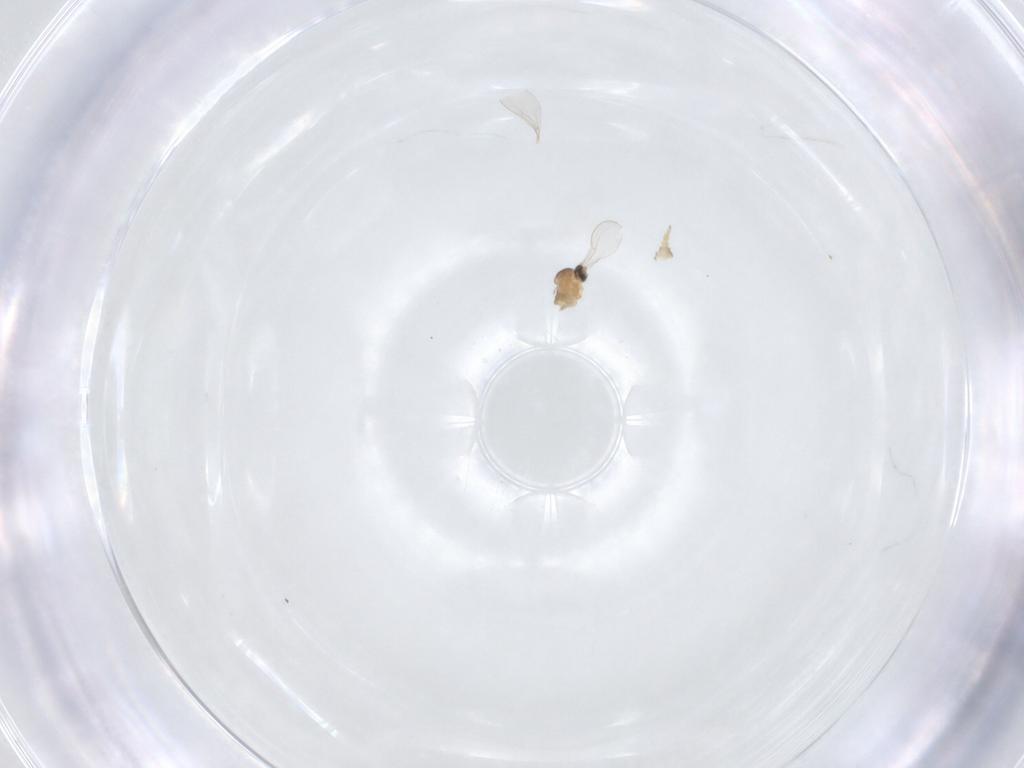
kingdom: Animalia
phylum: Arthropoda
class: Insecta
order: Diptera
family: Cecidomyiidae
